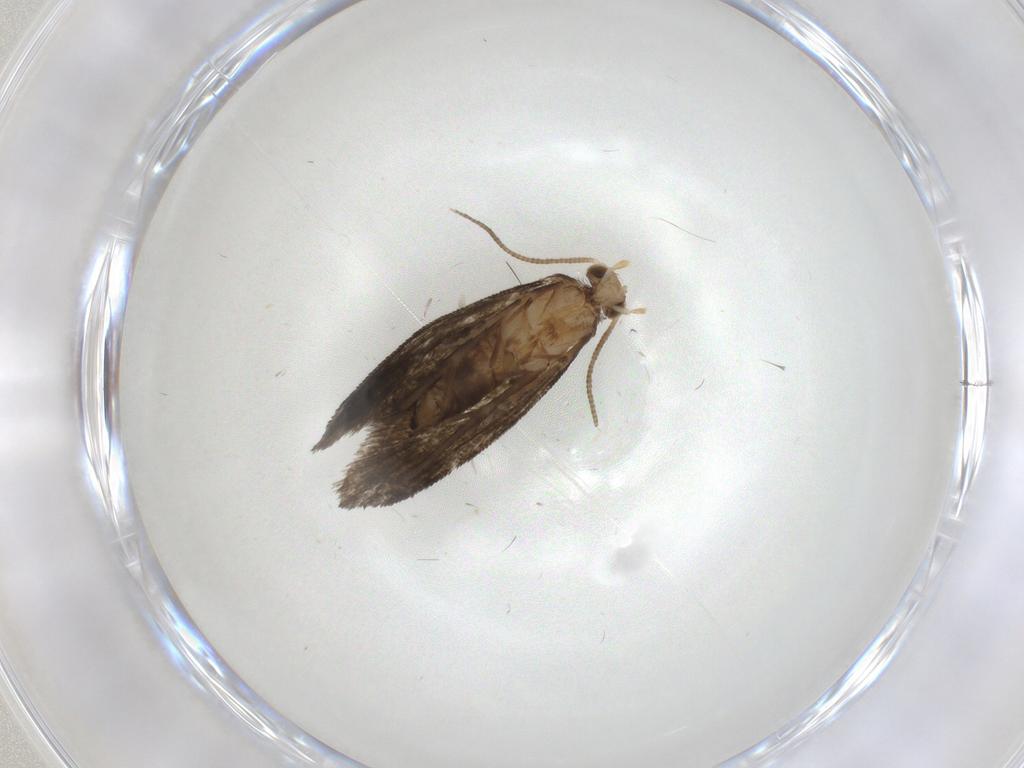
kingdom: Animalia
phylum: Arthropoda
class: Insecta
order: Lepidoptera
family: Tineidae
